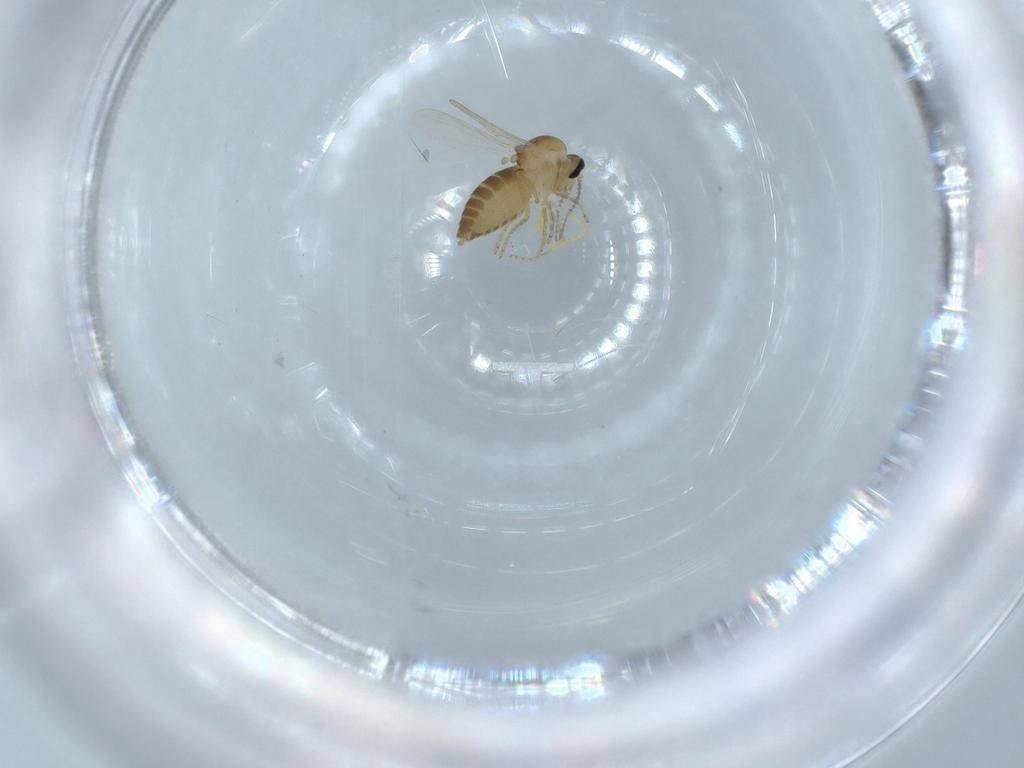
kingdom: Animalia
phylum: Arthropoda
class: Insecta
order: Diptera
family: Ceratopogonidae
